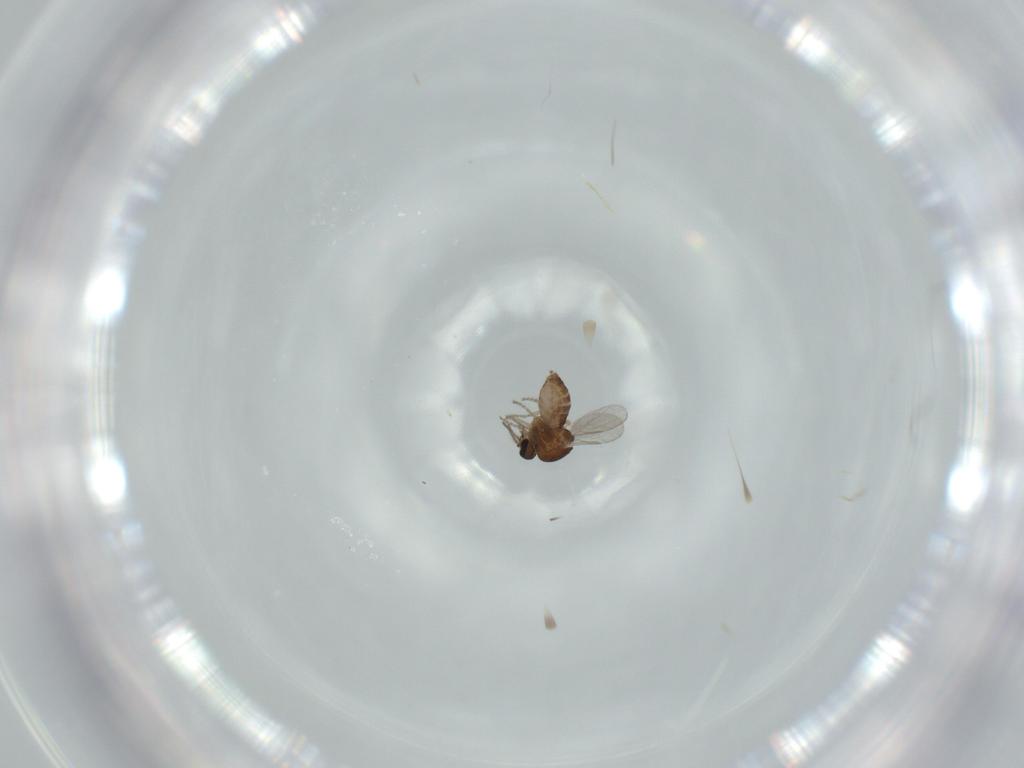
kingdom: Animalia
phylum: Arthropoda
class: Insecta
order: Diptera
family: Ceratopogonidae
